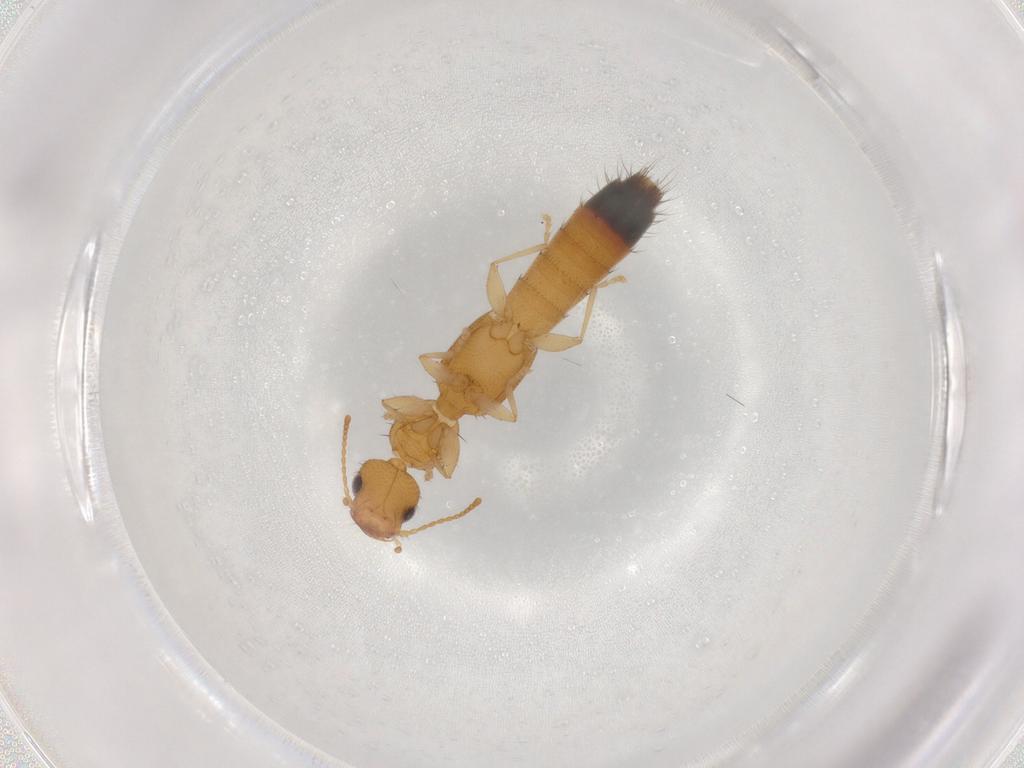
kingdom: Animalia
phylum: Arthropoda
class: Insecta
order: Coleoptera
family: Staphylinidae
